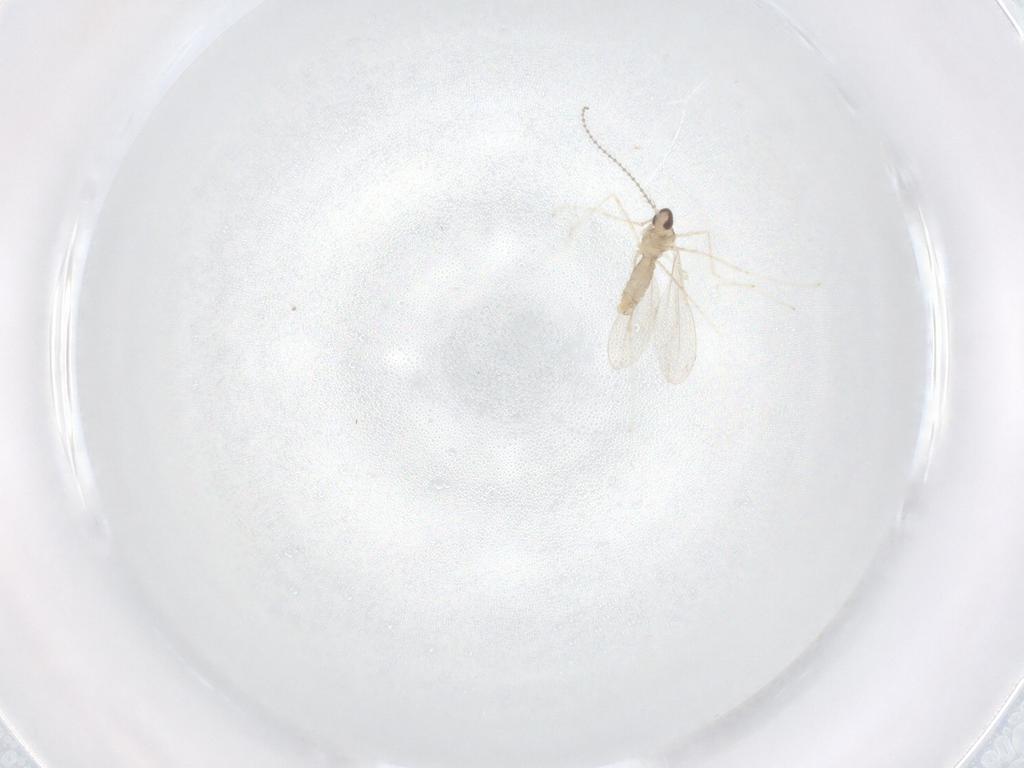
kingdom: Animalia
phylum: Arthropoda
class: Insecta
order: Diptera
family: Cecidomyiidae
